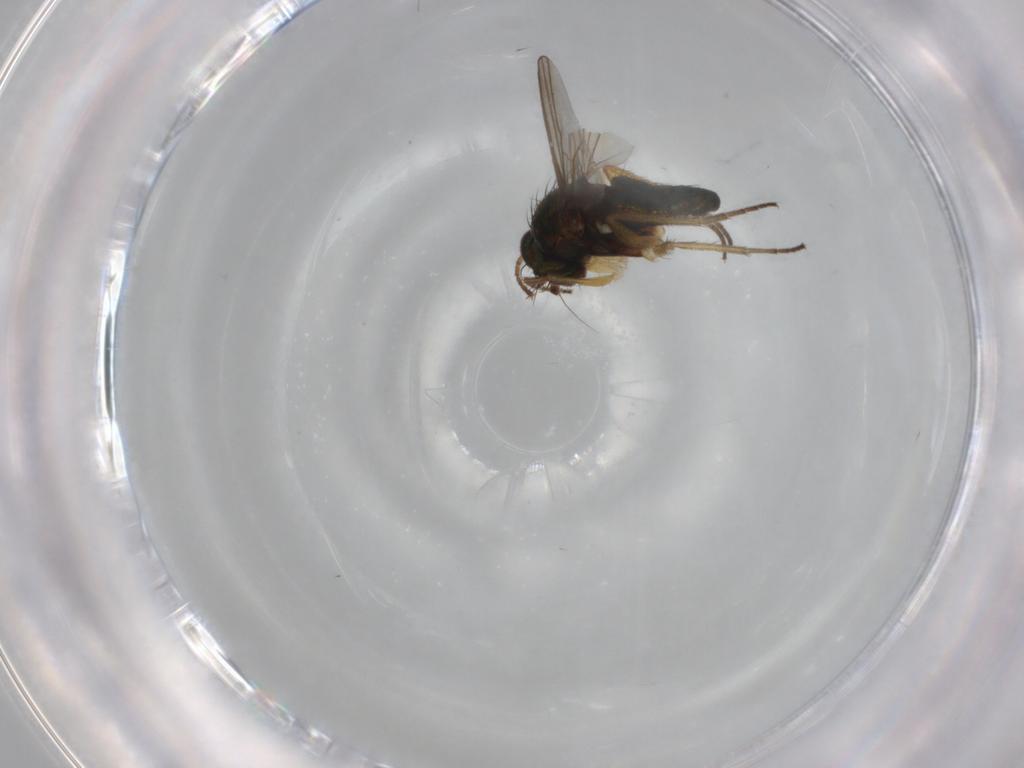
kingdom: Animalia
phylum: Arthropoda
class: Insecta
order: Diptera
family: Dolichopodidae
